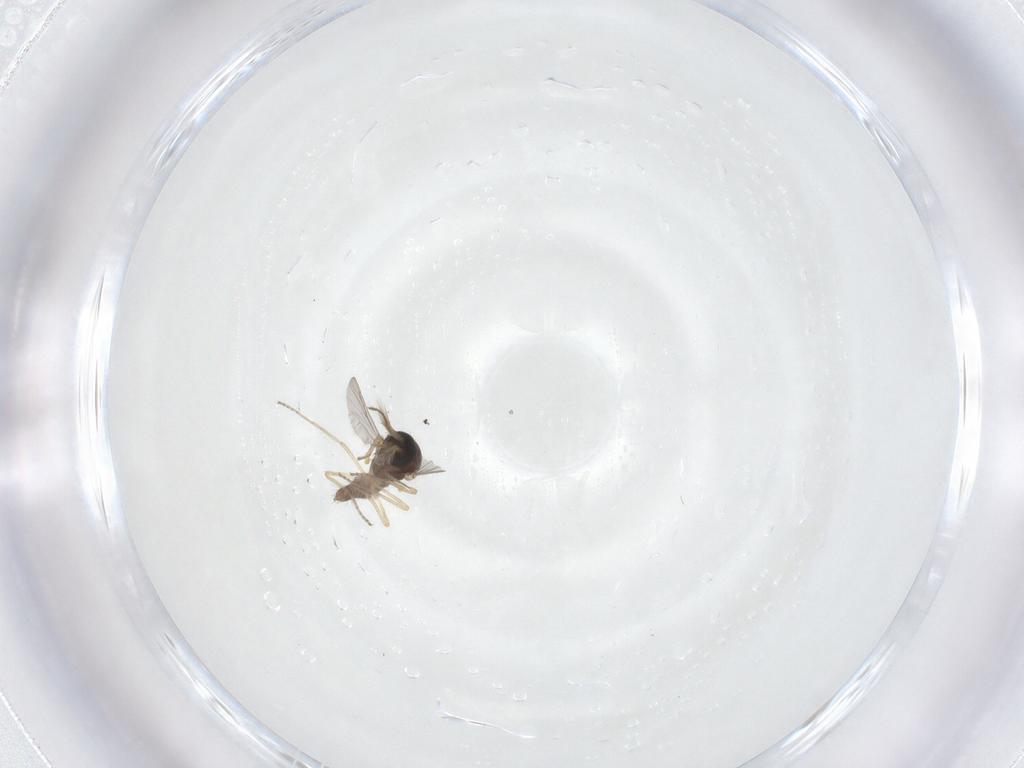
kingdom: Animalia
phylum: Arthropoda
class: Insecta
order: Diptera
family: Ceratopogonidae
